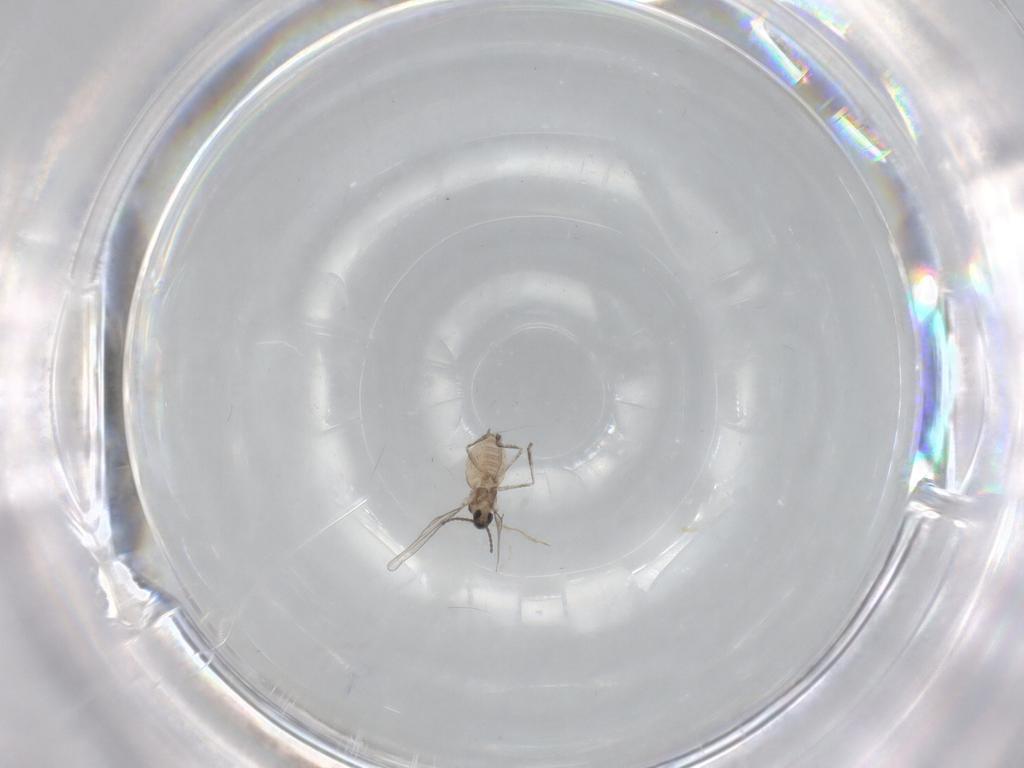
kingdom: Animalia
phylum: Arthropoda
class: Insecta
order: Diptera
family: Cecidomyiidae
